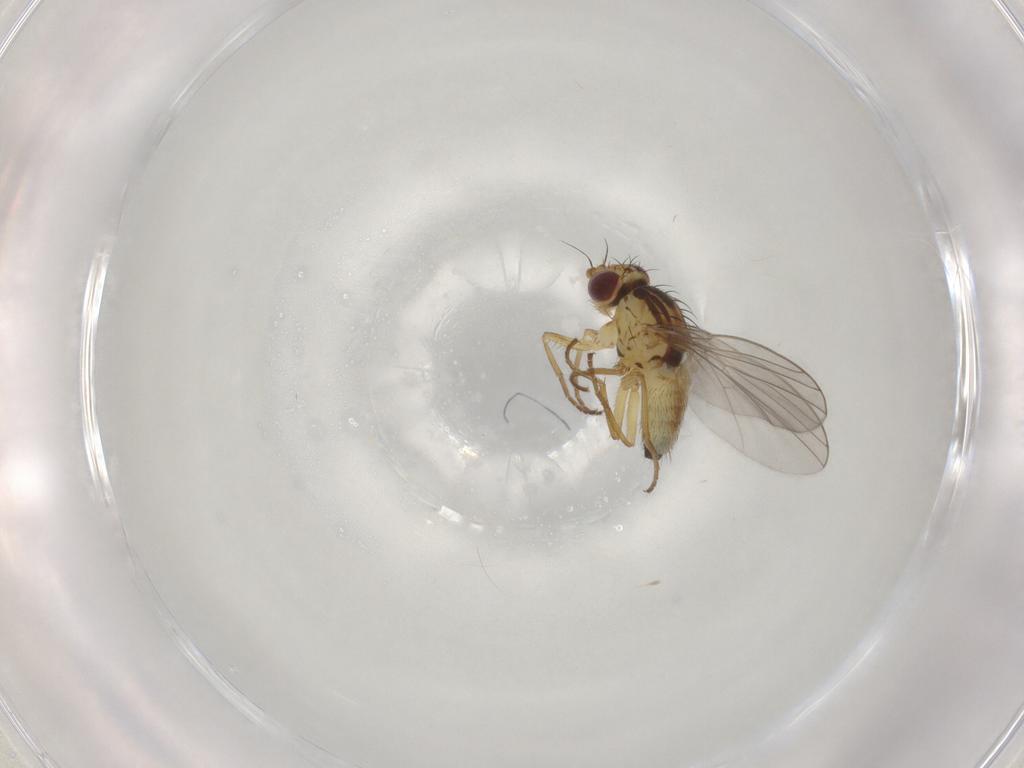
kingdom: Animalia
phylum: Arthropoda
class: Insecta
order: Diptera
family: Agromyzidae
